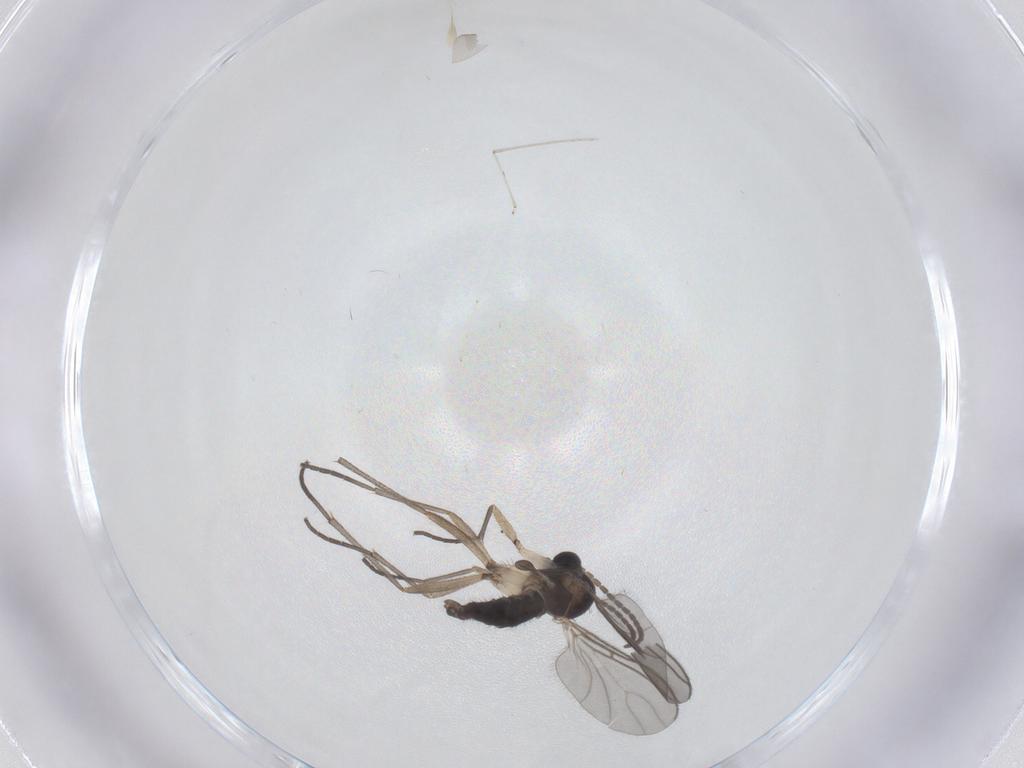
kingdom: Animalia
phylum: Arthropoda
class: Insecta
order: Diptera
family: Sciaridae
